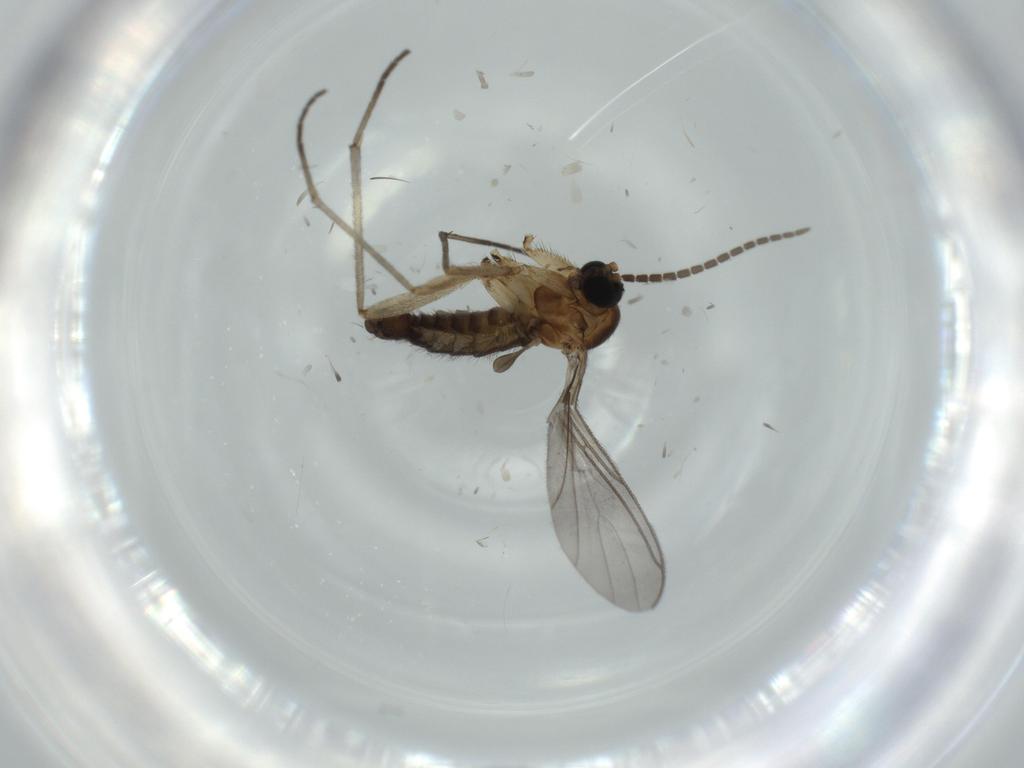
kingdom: Animalia
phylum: Arthropoda
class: Insecta
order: Diptera
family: Sciaridae
